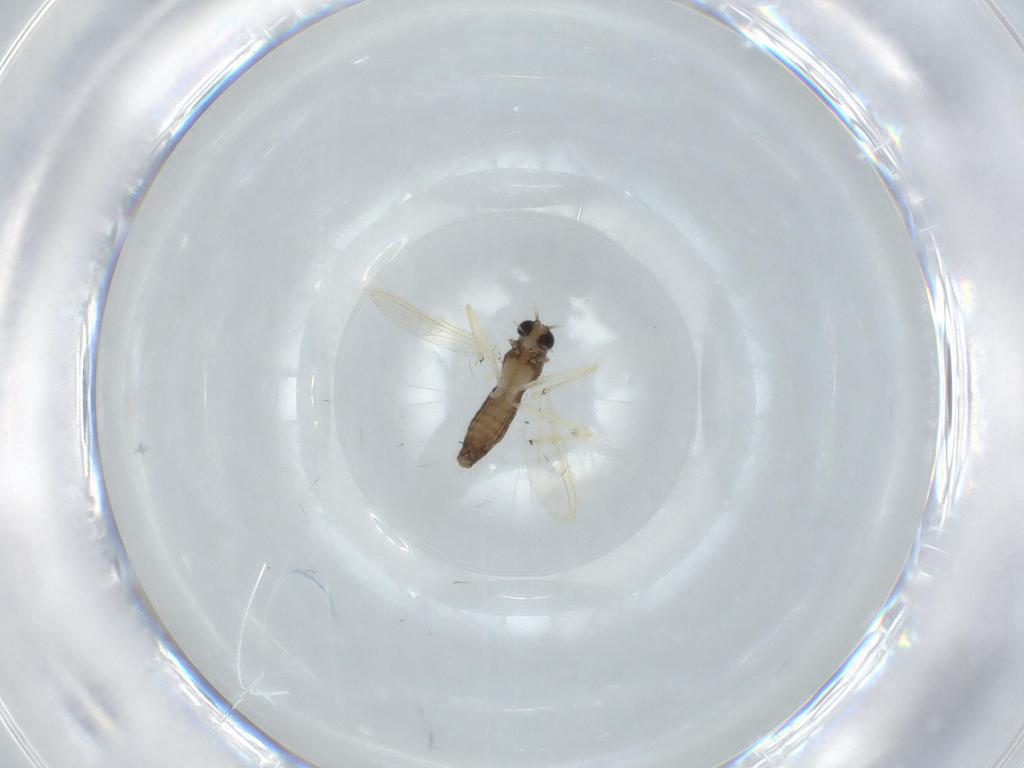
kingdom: Animalia
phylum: Arthropoda
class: Insecta
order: Diptera
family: Chironomidae
